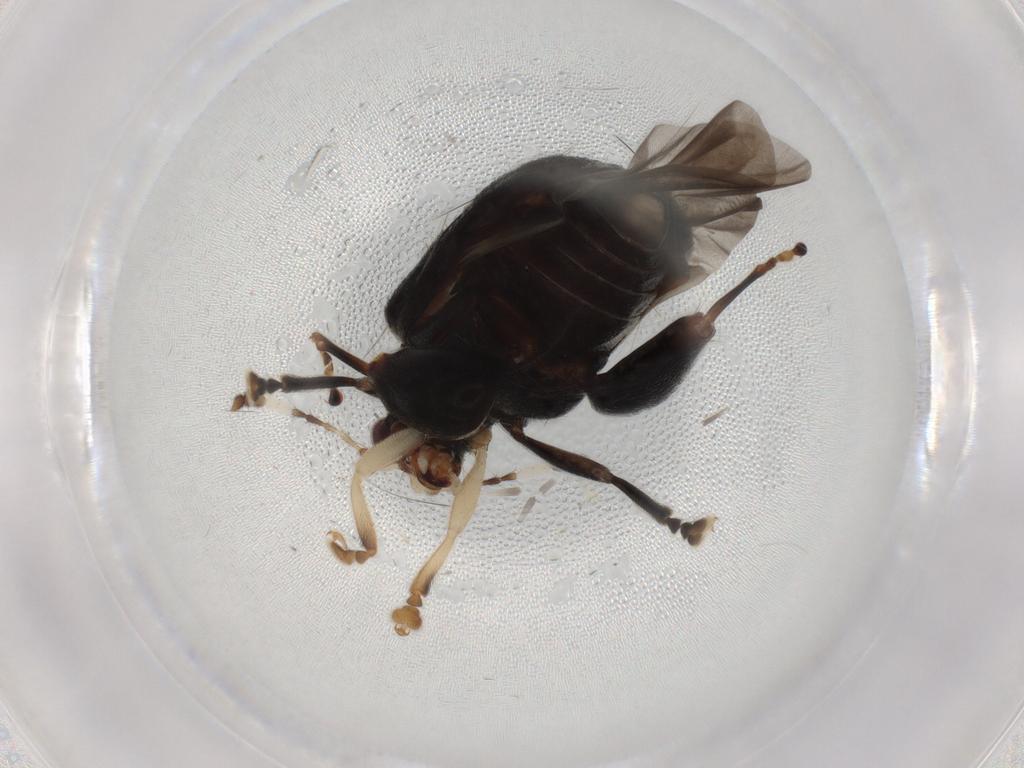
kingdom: Animalia
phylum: Arthropoda
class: Insecta
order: Coleoptera
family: Chrysomelidae
